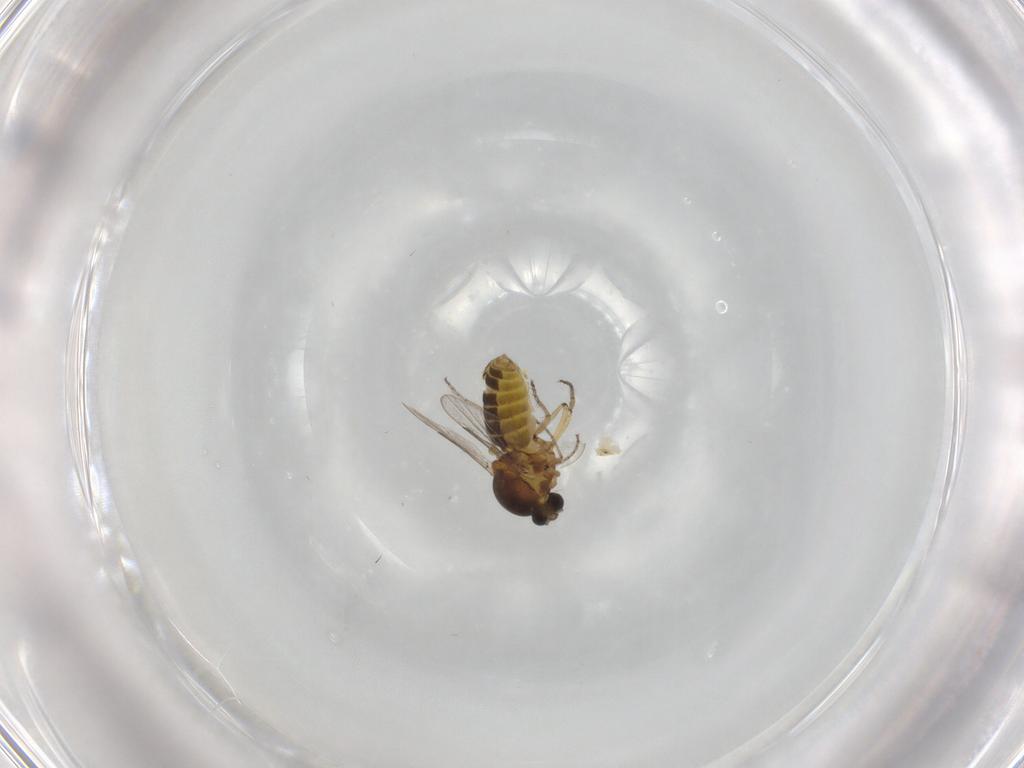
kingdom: Animalia
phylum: Arthropoda
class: Insecta
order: Diptera
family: Ceratopogonidae
